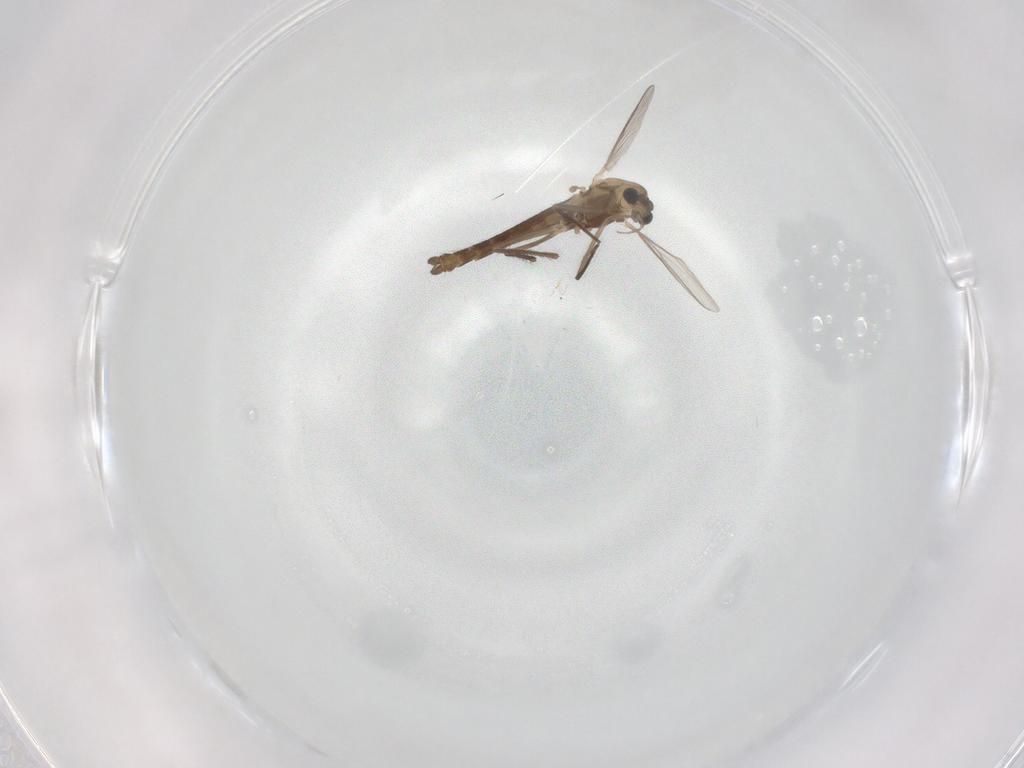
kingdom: Animalia
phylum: Arthropoda
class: Insecta
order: Diptera
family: Chironomidae
